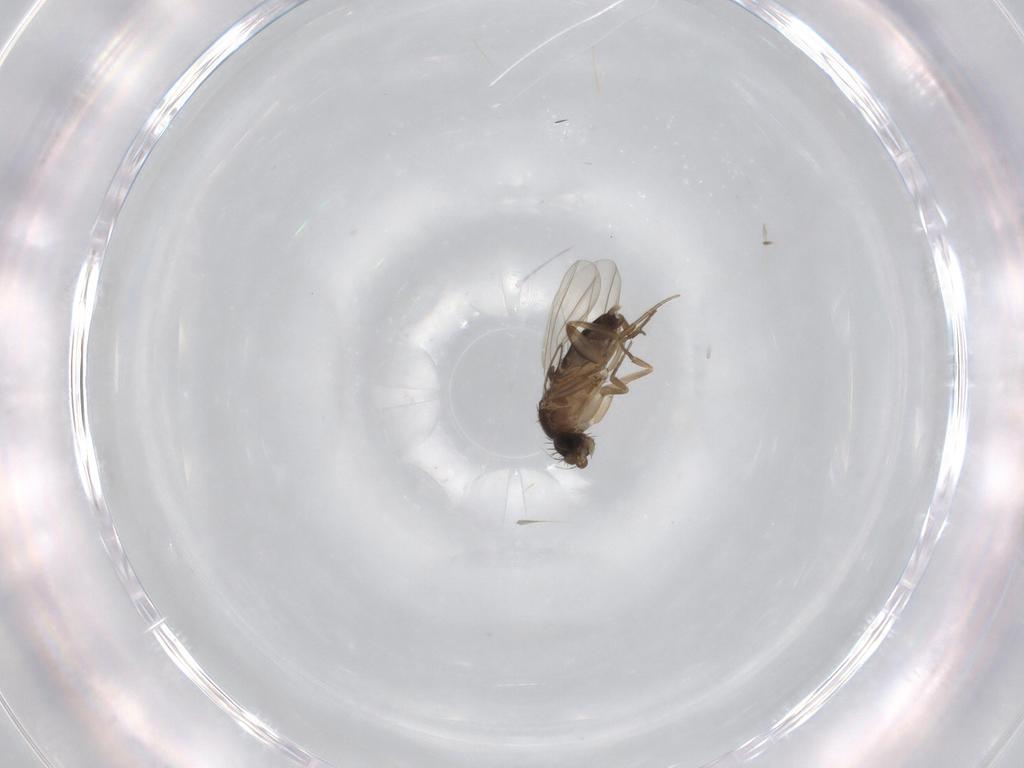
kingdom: Animalia
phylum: Arthropoda
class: Insecta
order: Diptera
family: Phoridae
